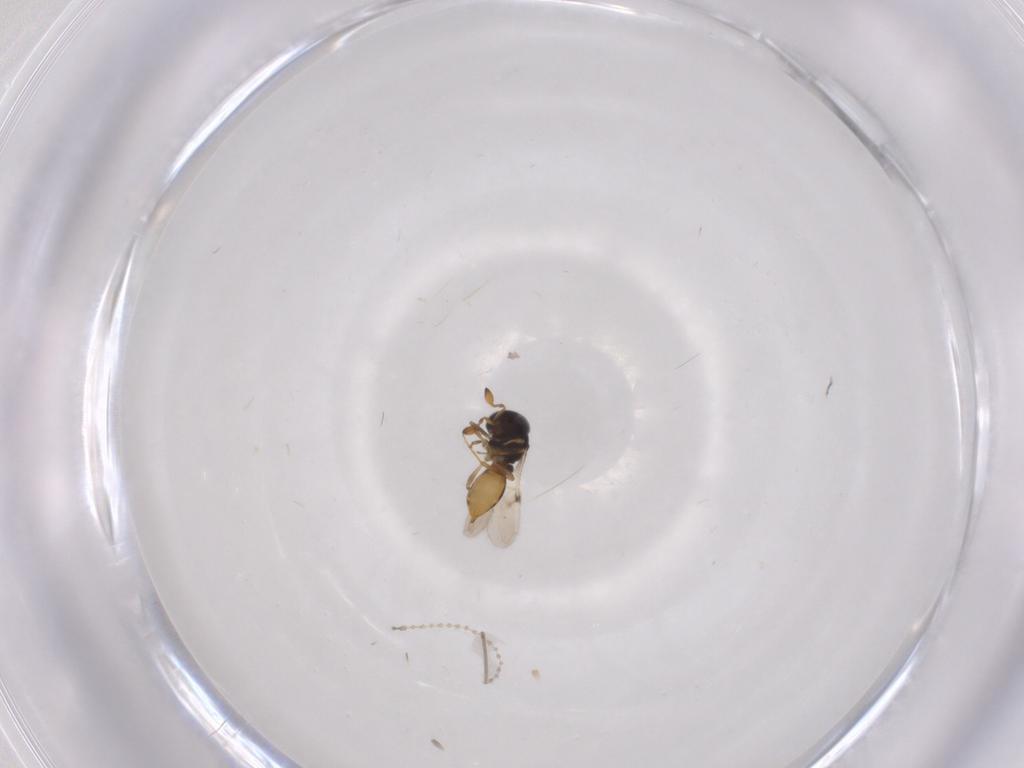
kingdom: Animalia
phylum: Arthropoda
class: Insecta
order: Hymenoptera
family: Scelionidae
